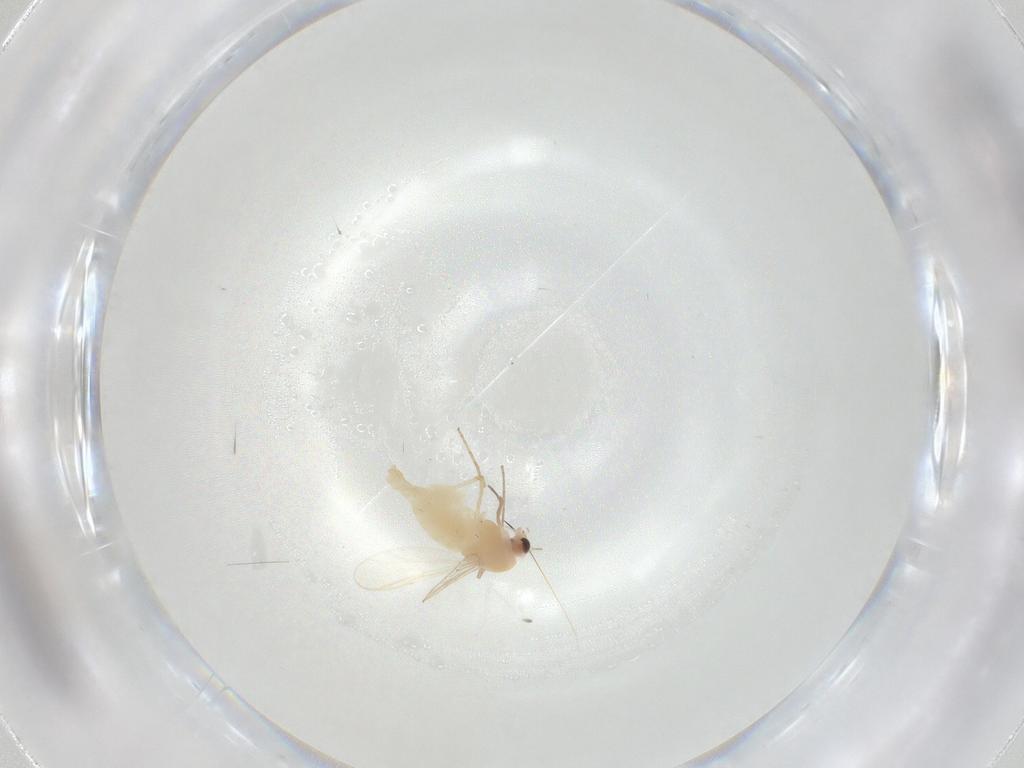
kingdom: Animalia
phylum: Arthropoda
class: Insecta
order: Diptera
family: Chironomidae
